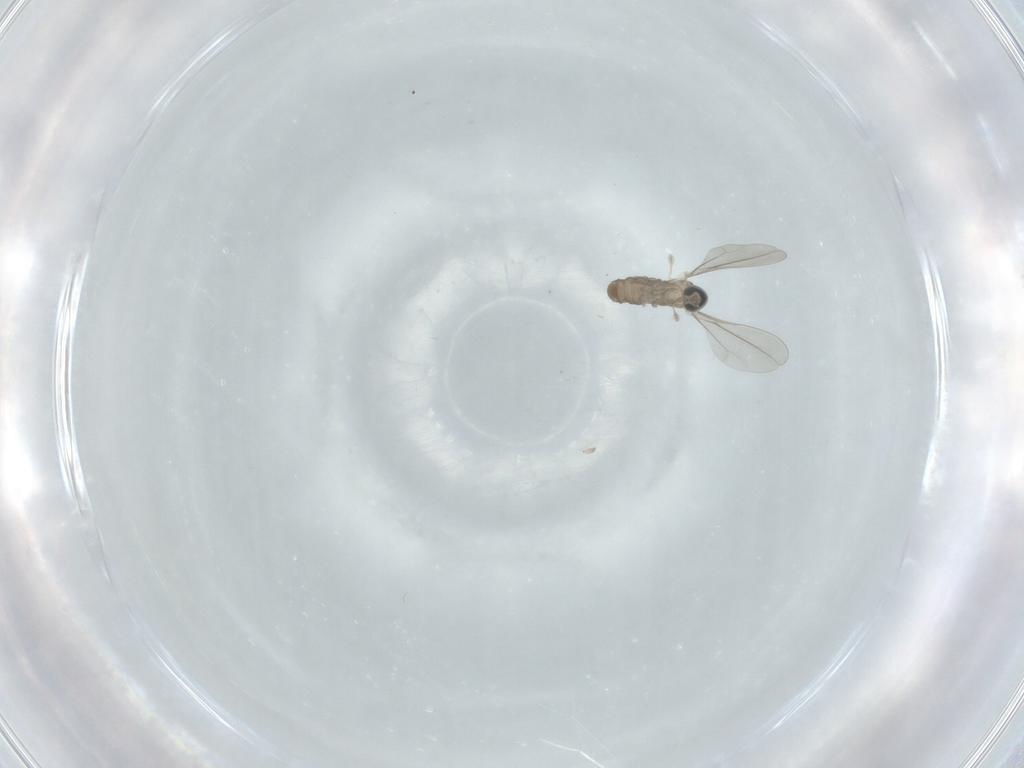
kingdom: Animalia
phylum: Arthropoda
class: Insecta
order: Diptera
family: Cecidomyiidae
